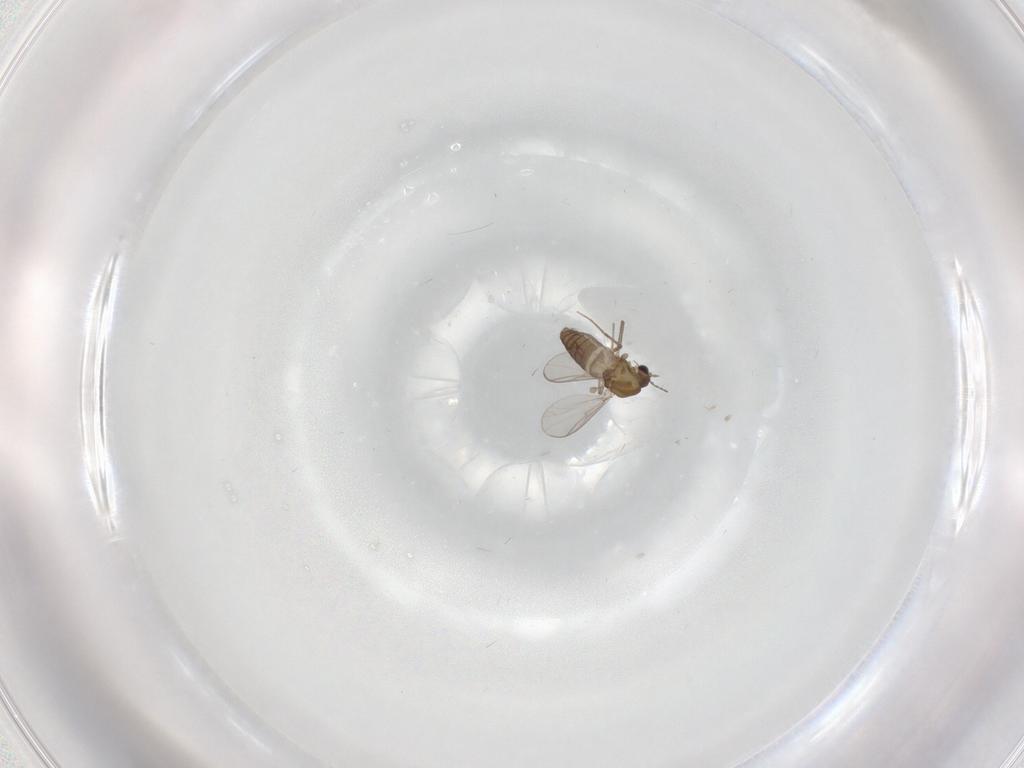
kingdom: Animalia
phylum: Arthropoda
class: Insecta
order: Diptera
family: Chironomidae
